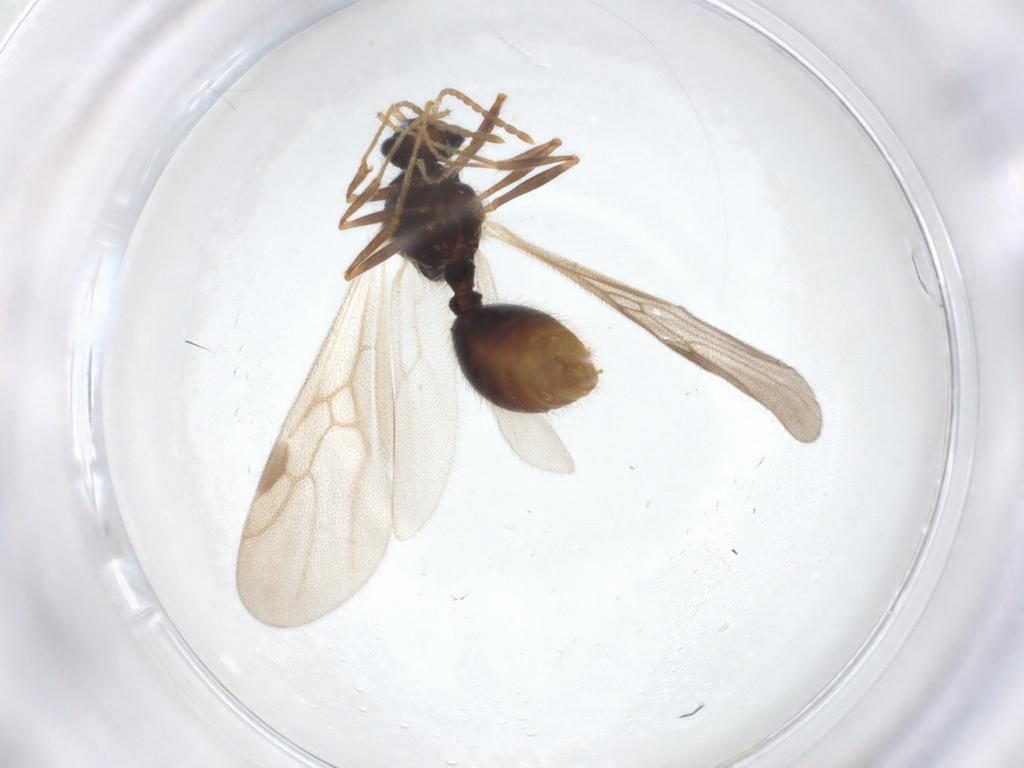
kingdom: Animalia
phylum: Arthropoda
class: Insecta
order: Hymenoptera
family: Formicidae
